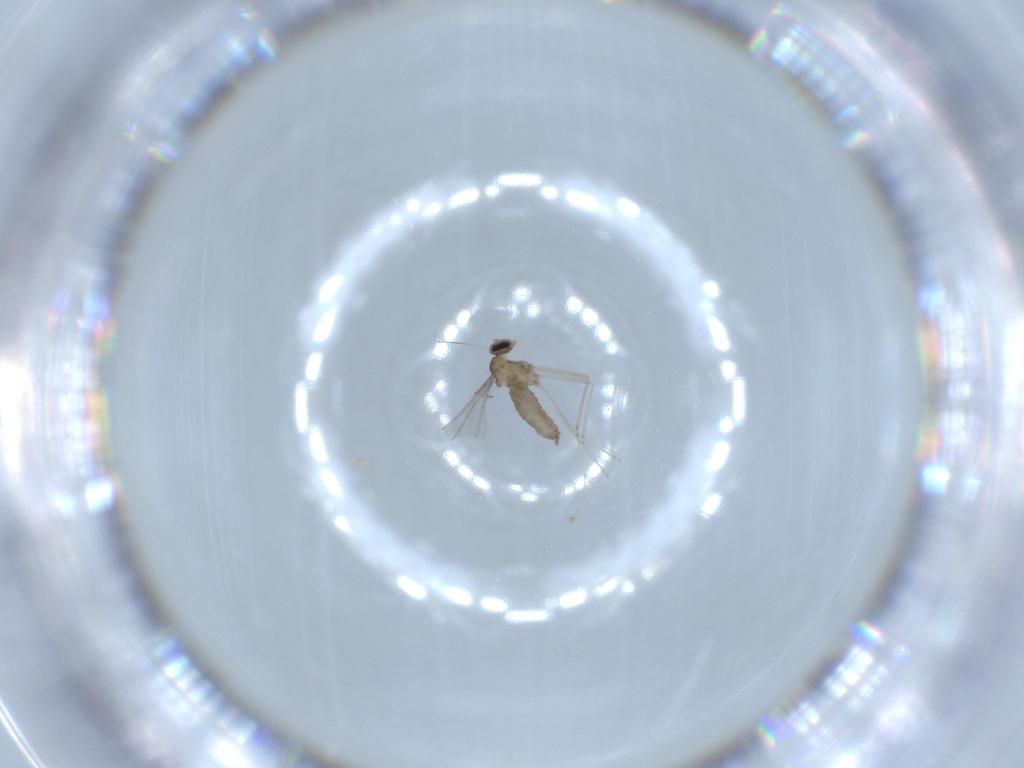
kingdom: Animalia
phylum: Arthropoda
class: Insecta
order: Diptera
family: Cecidomyiidae
